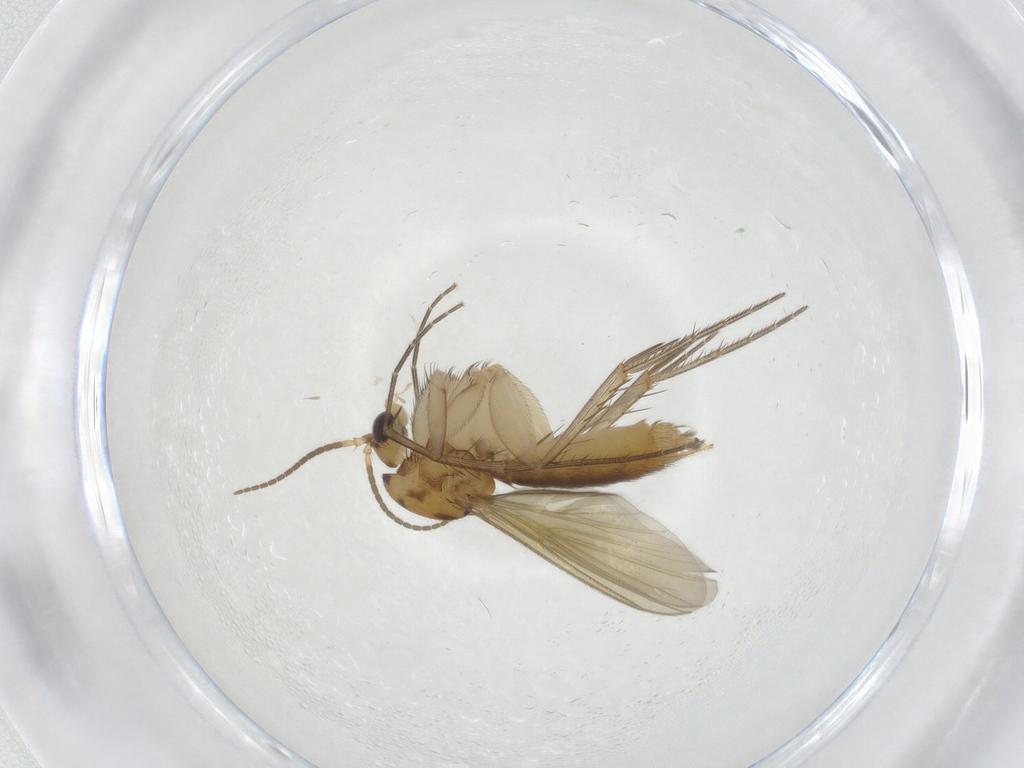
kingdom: Animalia
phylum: Arthropoda
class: Insecta
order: Diptera
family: Mycetophilidae
